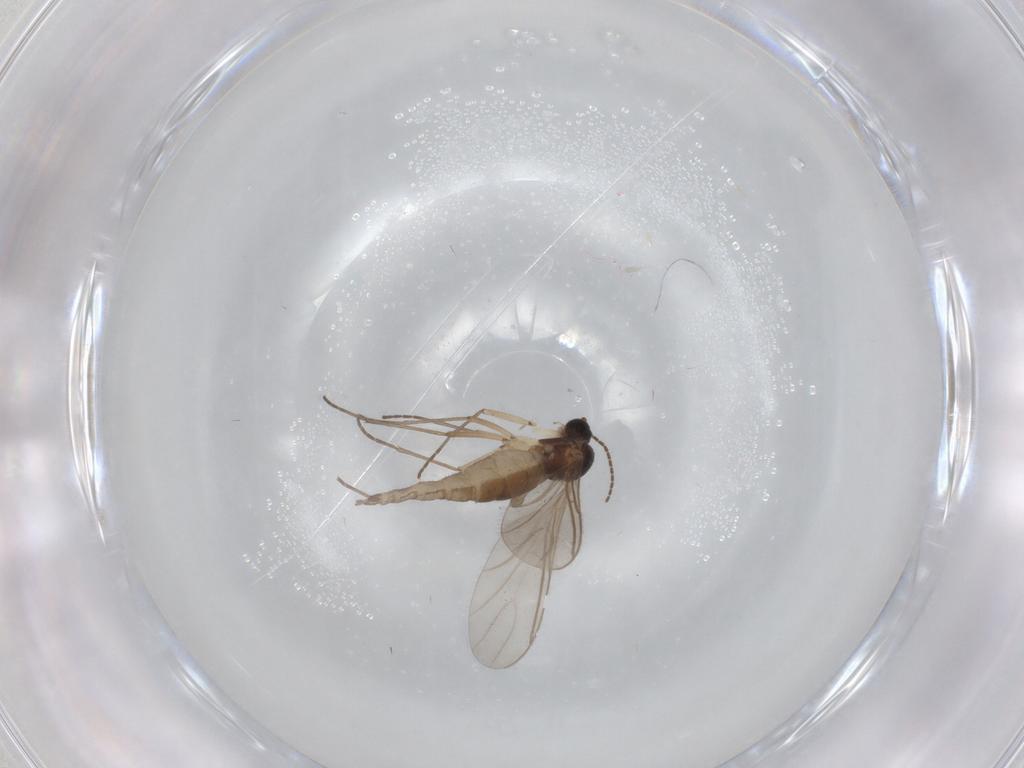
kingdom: Animalia
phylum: Arthropoda
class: Insecta
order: Diptera
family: Sciaridae
